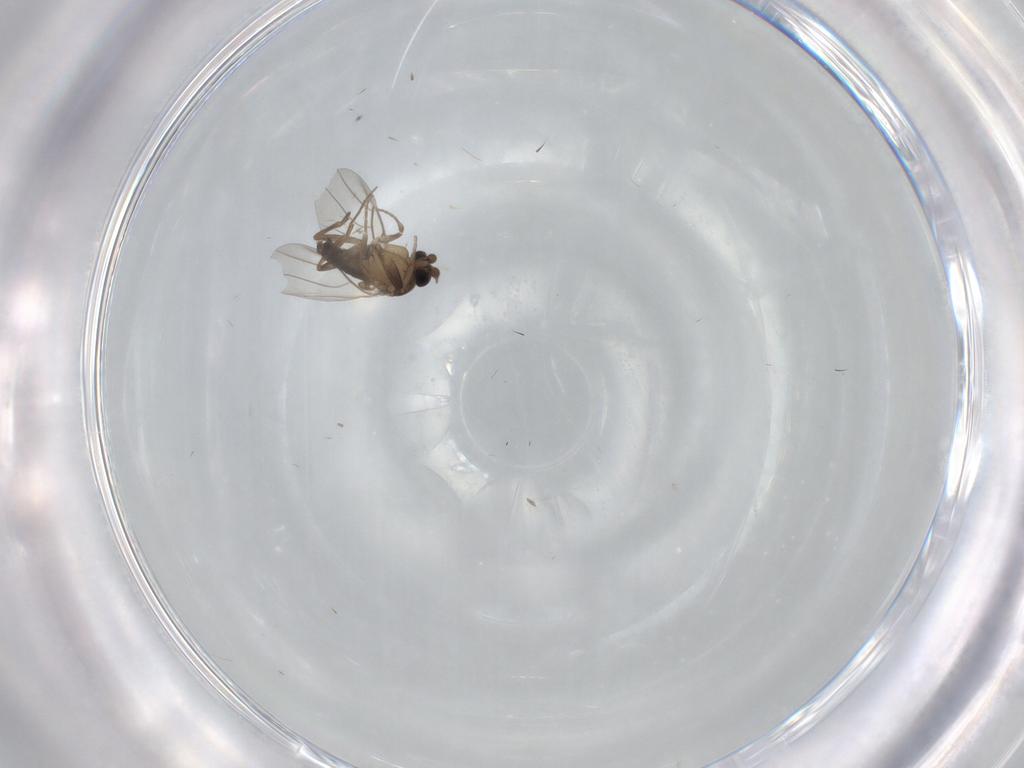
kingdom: Animalia
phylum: Arthropoda
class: Insecta
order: Diptera
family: Phoridae
